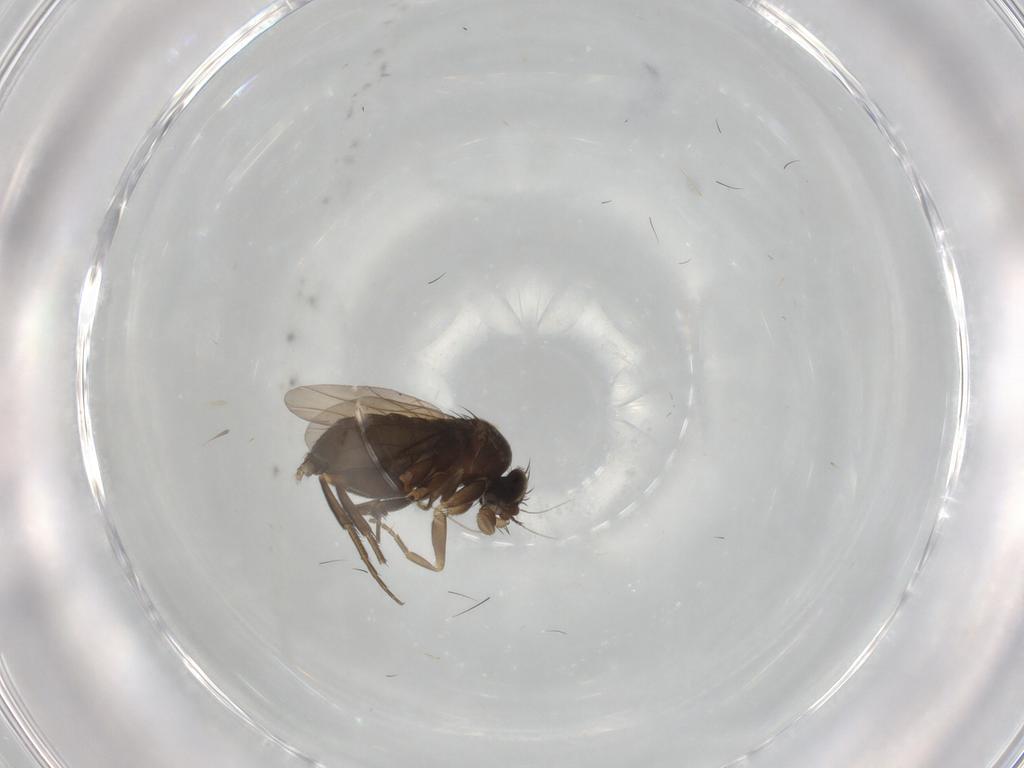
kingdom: Animalia
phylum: Arthropoda
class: Insecta
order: Diptera
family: Phoridae
